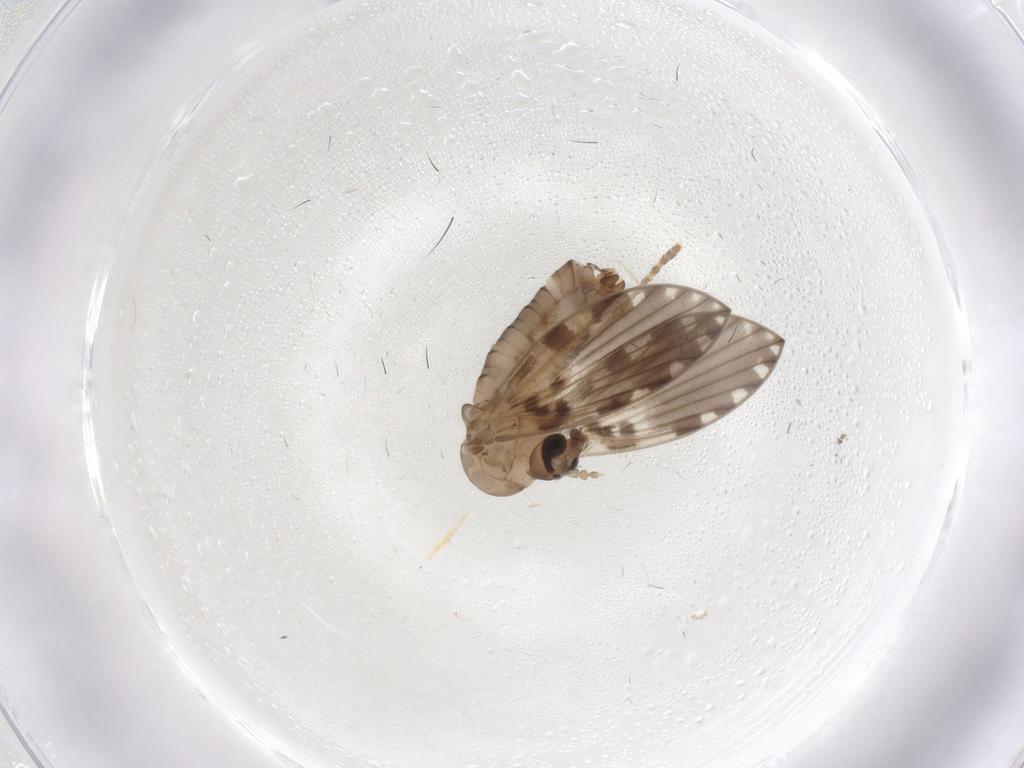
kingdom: Animalia
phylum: Arthropoda
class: Insecta
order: Diptera
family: Psychodidae
